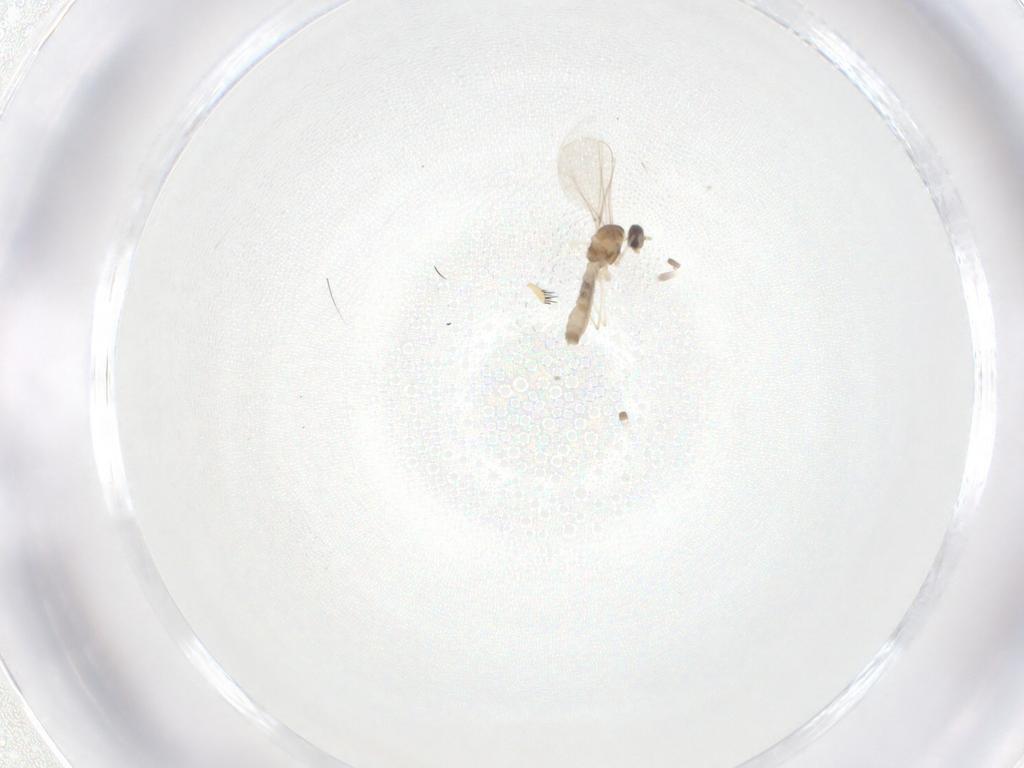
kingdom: Animalia
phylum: Arthropoda
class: Insecta
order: Diptera
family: Cecidomyiidae
